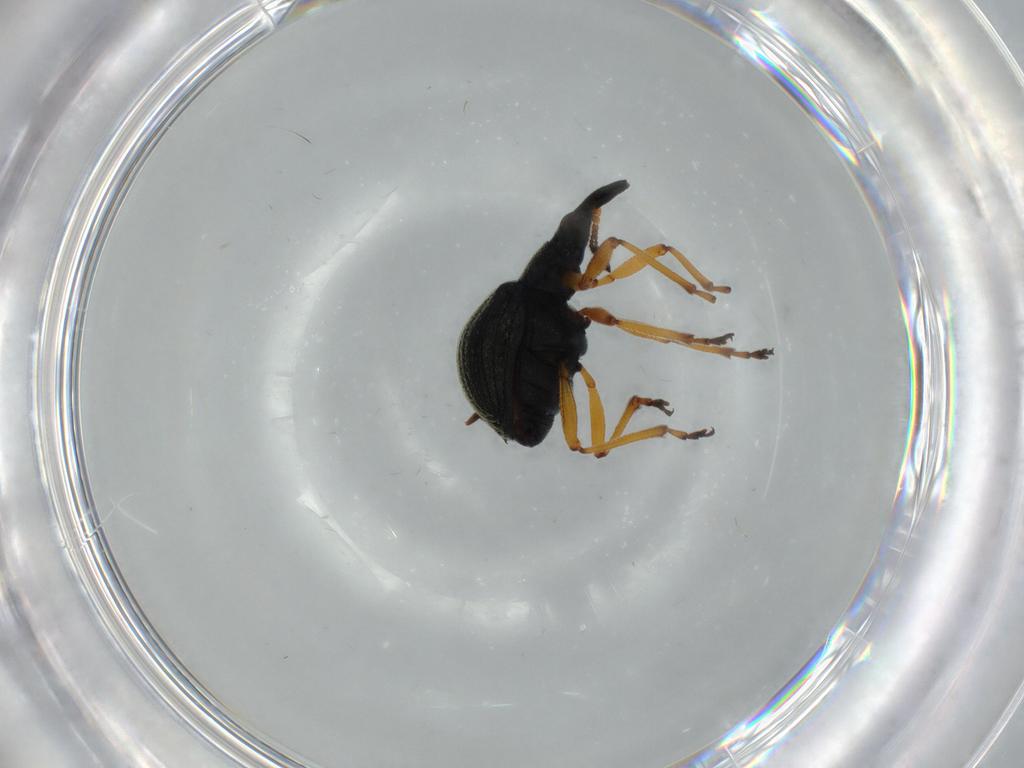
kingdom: Animalia
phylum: Arthropoda
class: Insecta
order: Coleoptera
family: Brentidae
